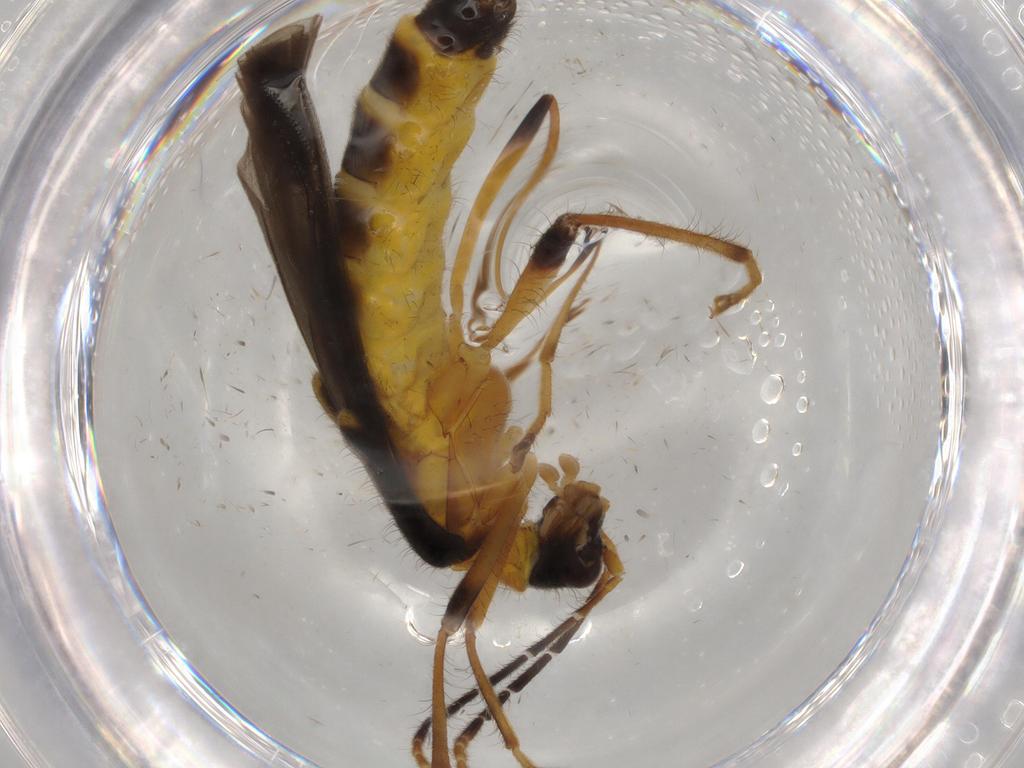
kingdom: Animalia
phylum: Arthropoda
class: Insecta
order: Coleoptera
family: Cantharidae
